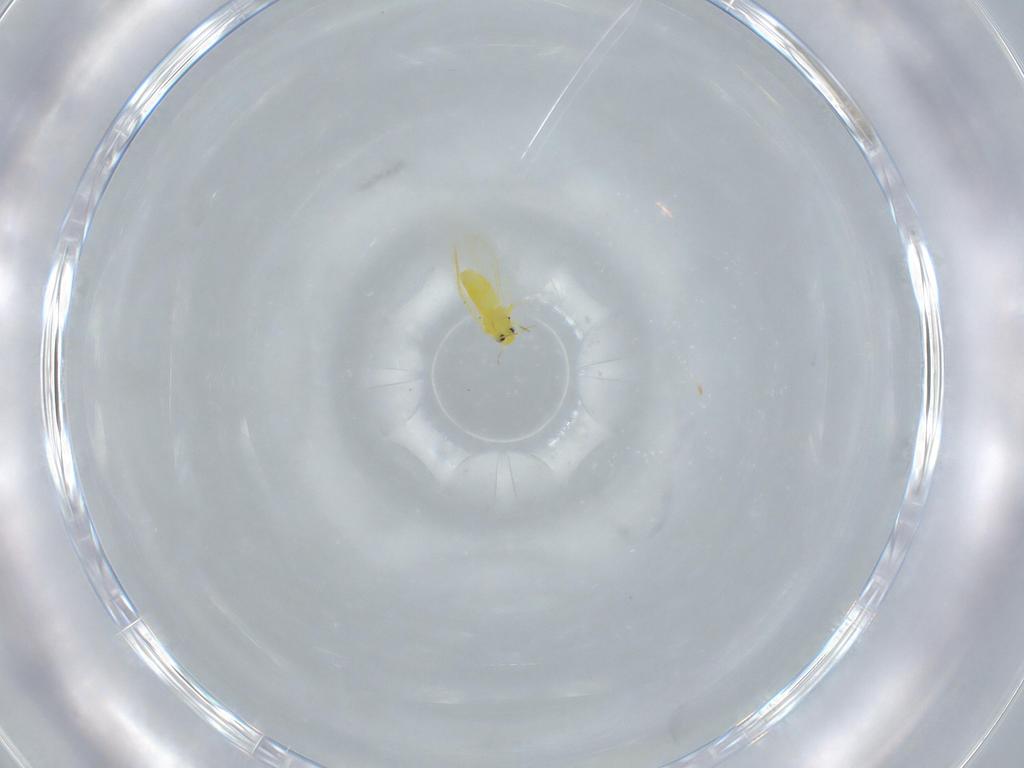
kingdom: Animalia
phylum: Arthropoda
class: Insecta
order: Hemiptera
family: Aleyrodidae
